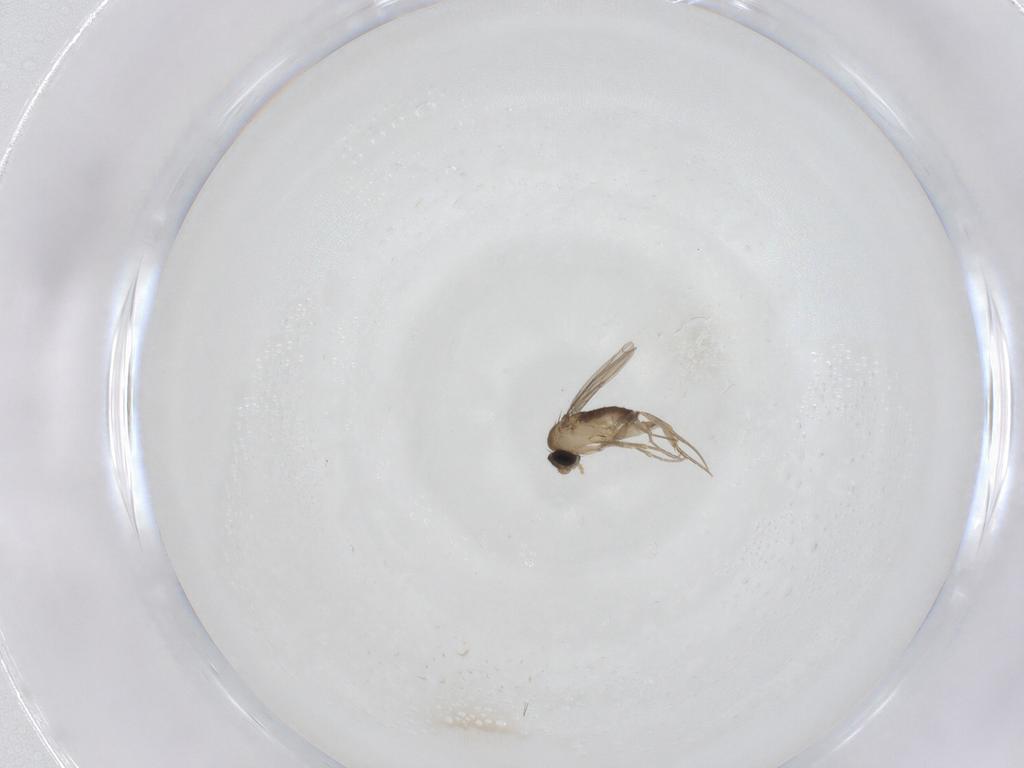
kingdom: Animalia
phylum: Arthropoda
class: Insecta
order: Diptera
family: Phoridae
